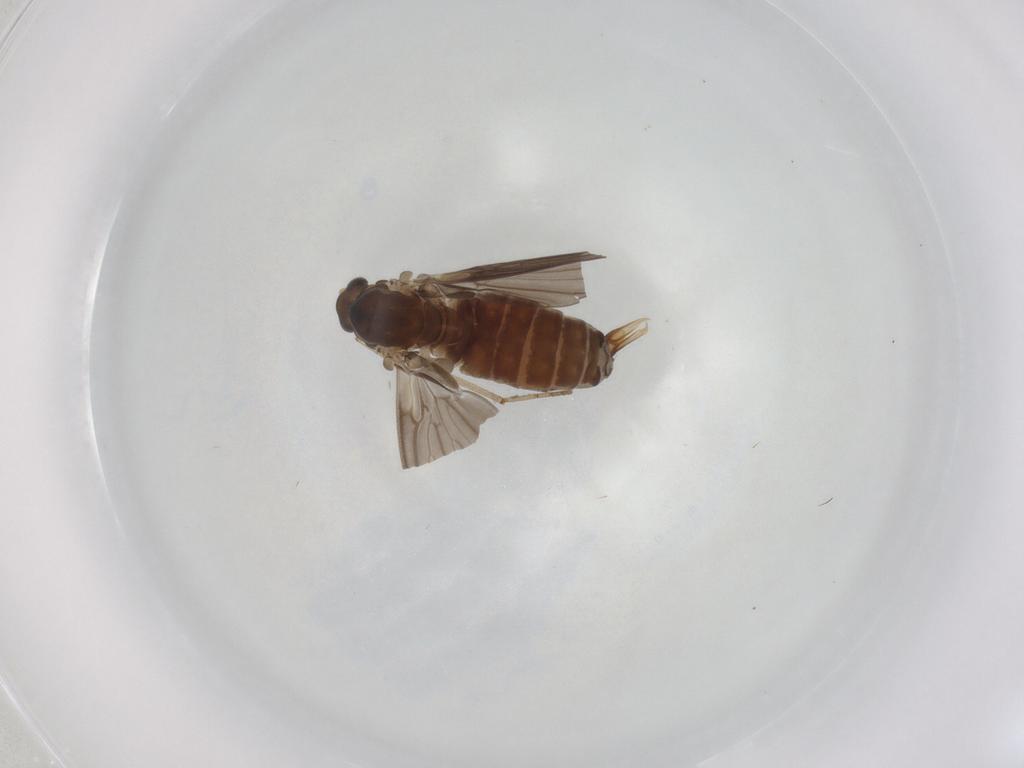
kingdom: Animalia
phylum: Arthropoda
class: Insecta
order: Diptera
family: Psychodidae
